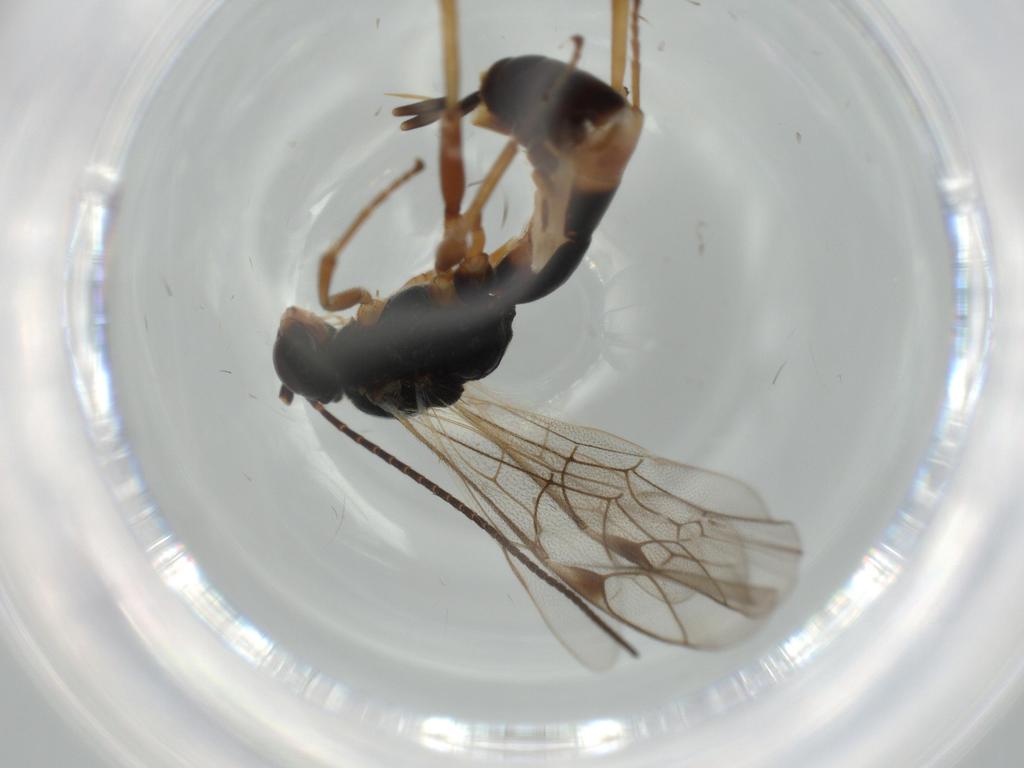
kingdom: Animalia
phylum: Arthropoda
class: Insecta
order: Hymenoptera
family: Ichneumonidae
